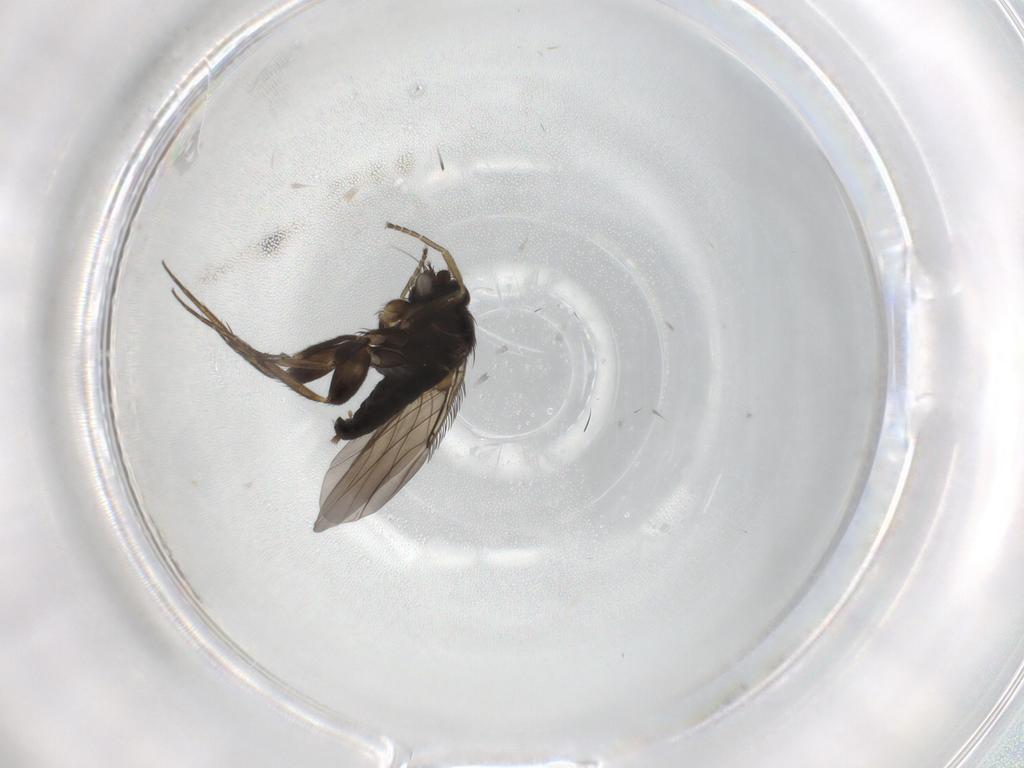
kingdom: Animalia
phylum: Arthropoda
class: Insecta
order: Diptera
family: Phoridae
